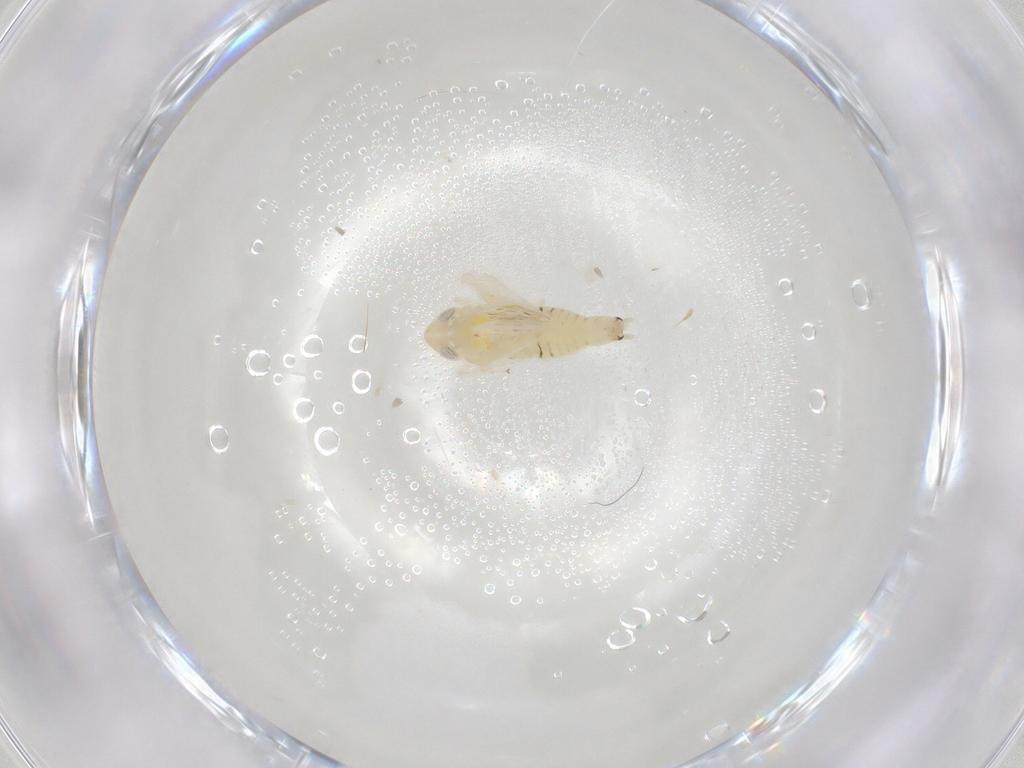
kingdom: Animalia
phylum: Arthropoda
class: Insecta
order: Hemiptera
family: Cicadellidae
